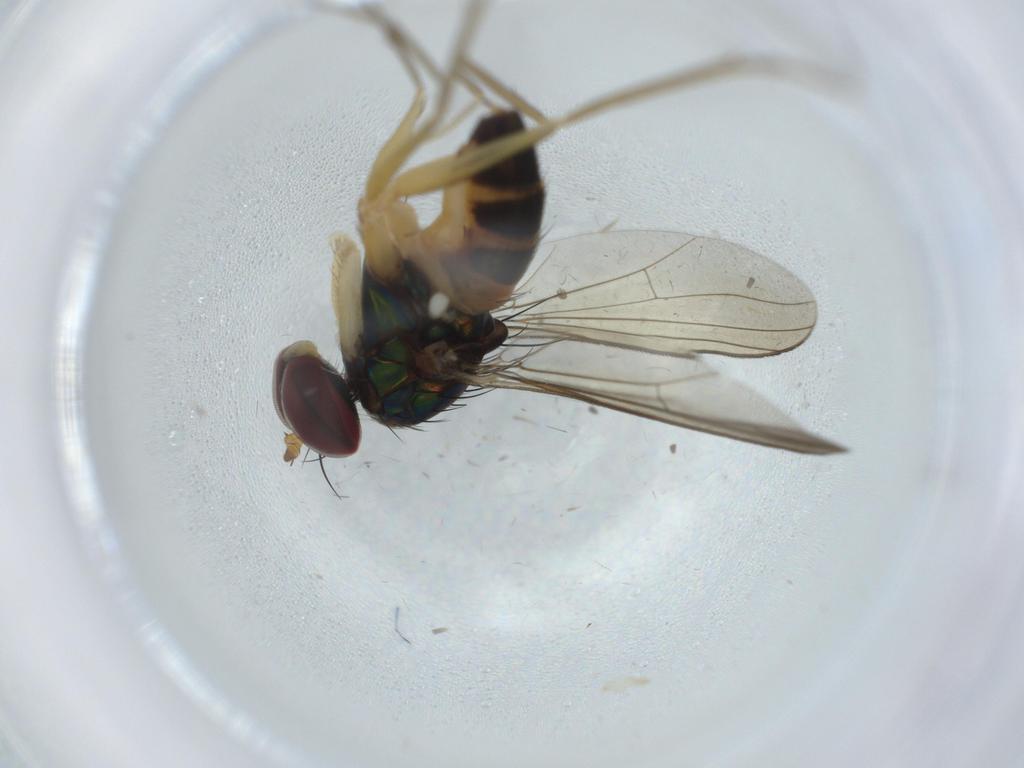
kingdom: Animalia
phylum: Arthropoda
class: Insecta
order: Diptera
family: Dolichopodidae
